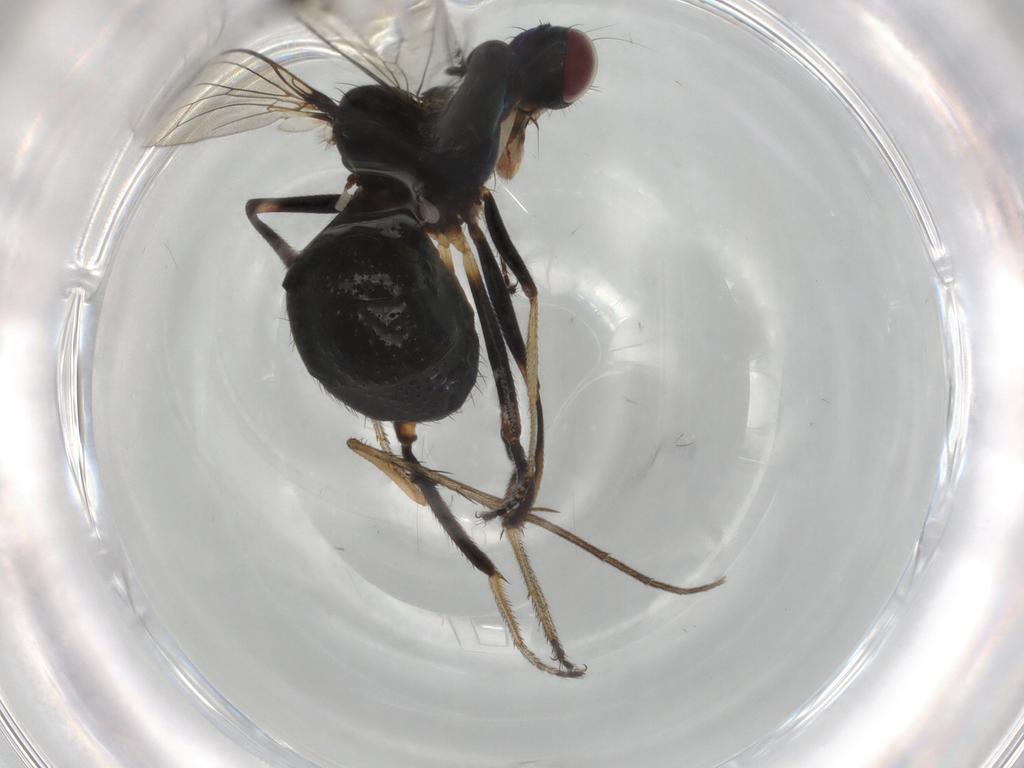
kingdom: Animalia
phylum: Arthropoda
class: Insecta
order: Diptera
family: Sepsidae
